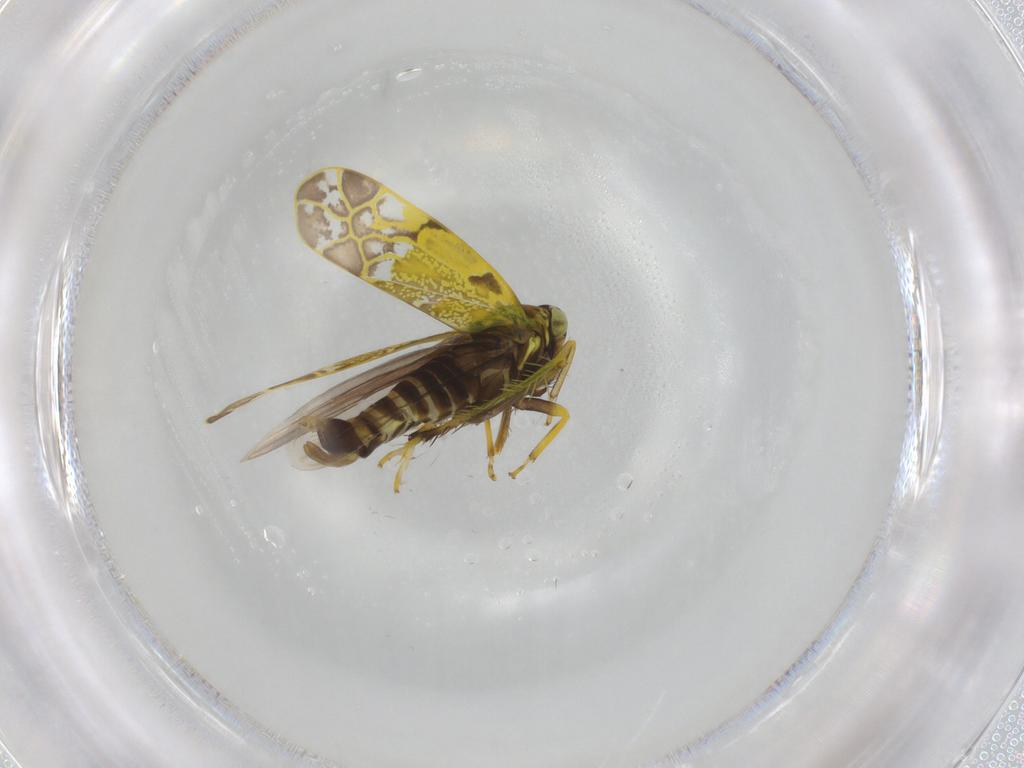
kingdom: Animalia
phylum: Arthropoda
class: Insecta
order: Hemiptera
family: Cicadellidae
